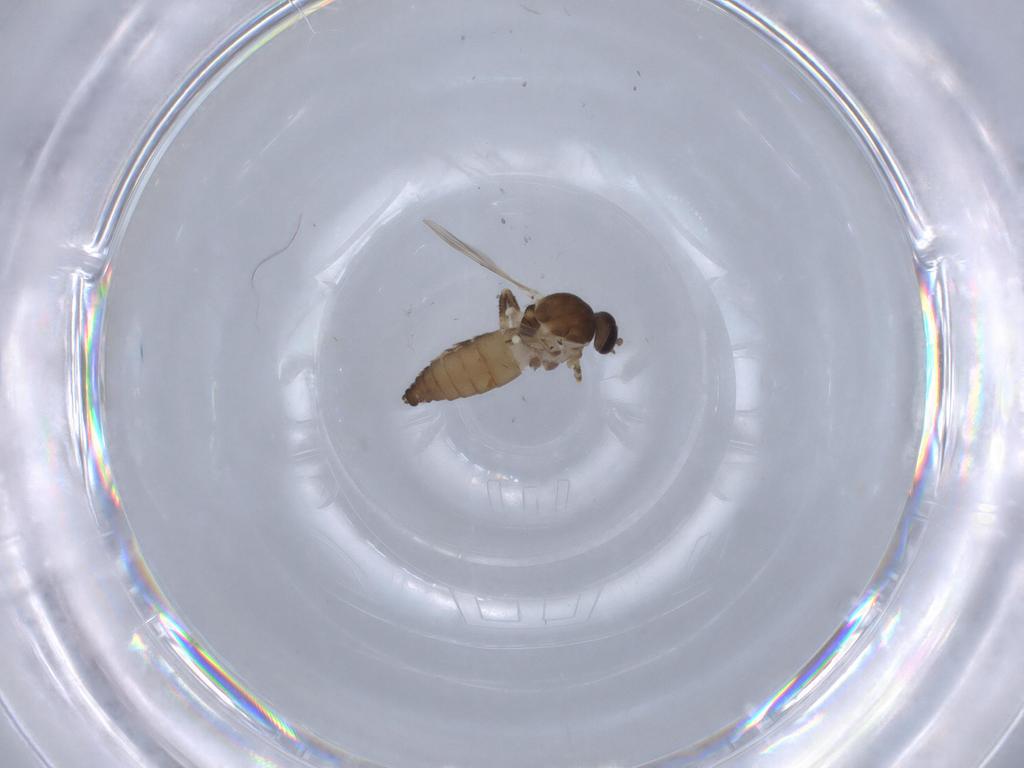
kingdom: Animalia
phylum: Arthropoda
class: Insecta
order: Diptera
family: Ceratopogonidae
